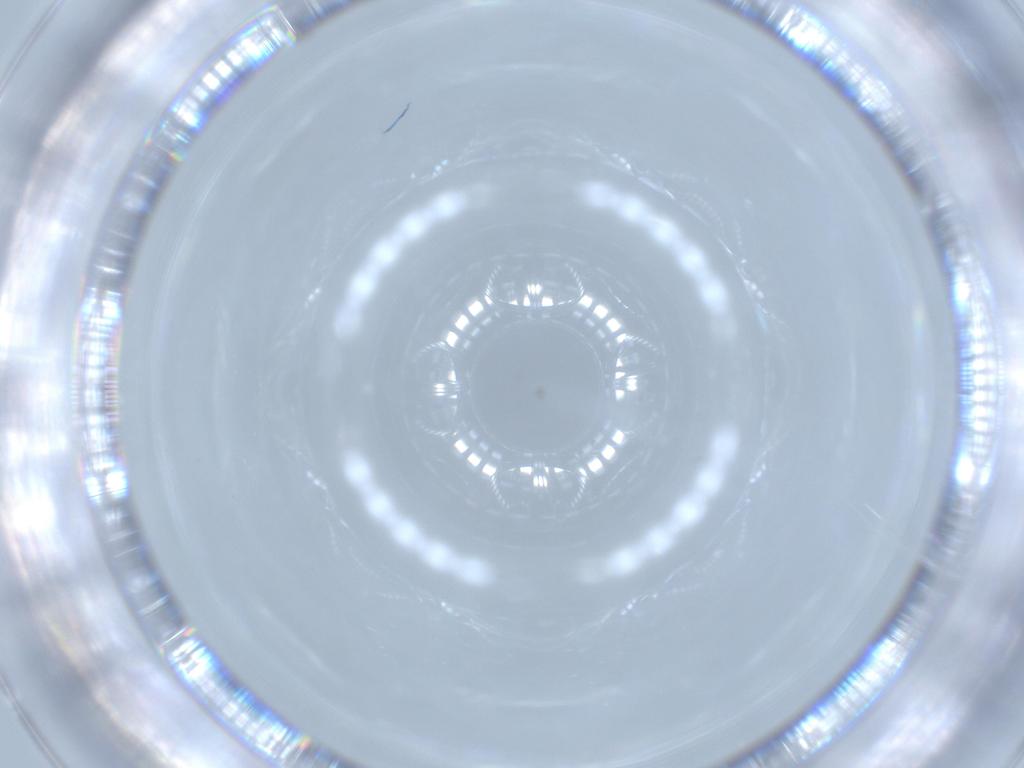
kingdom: Animalia
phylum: Arthropoda
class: Insecta
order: Diptera
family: Cecidomyiidae
